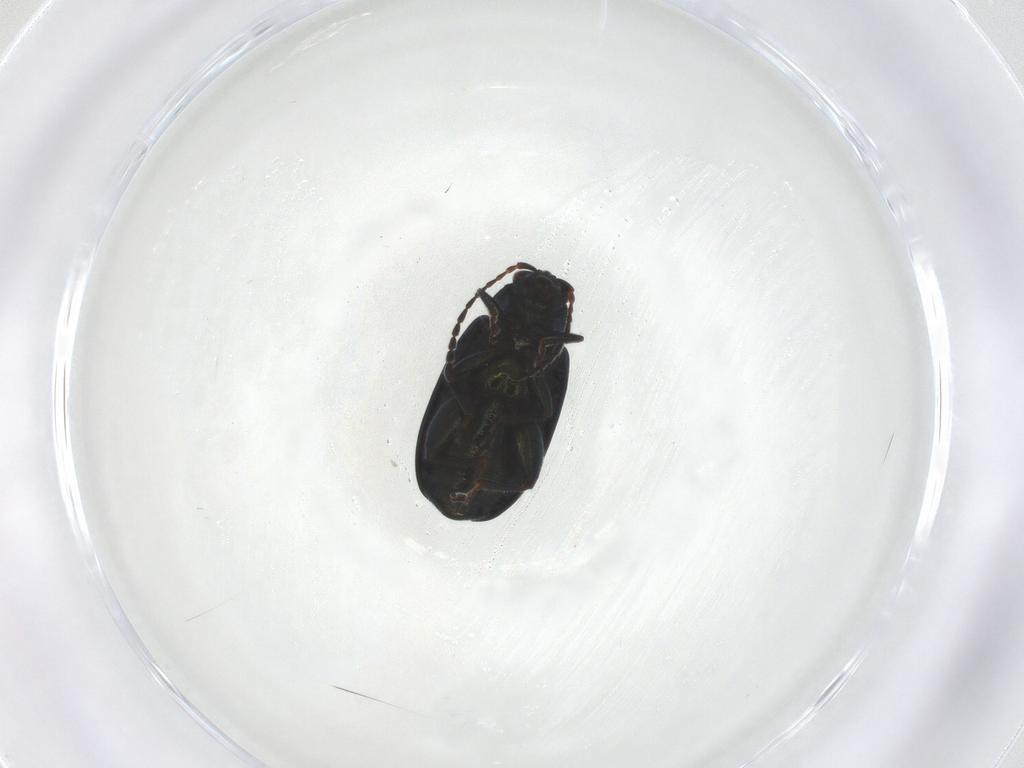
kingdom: Animalia
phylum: Arthropoda
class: Insecta
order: Coleoptera
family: Chrysomelidae
